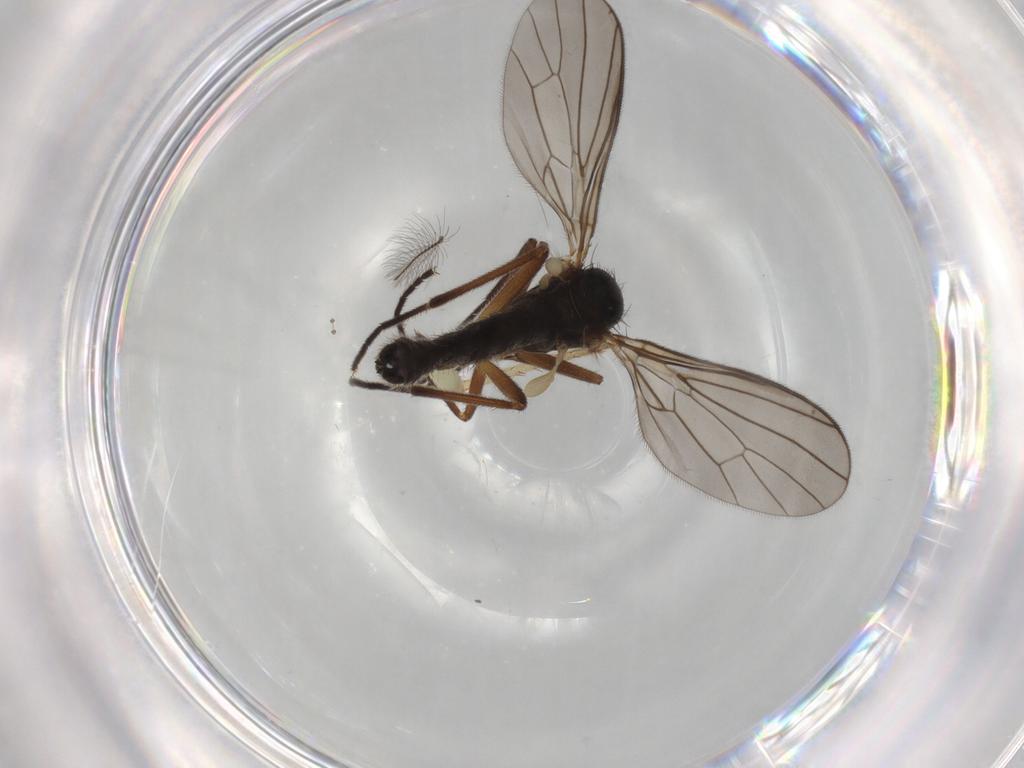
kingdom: Animalia
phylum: Arthropoda
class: Insecta
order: Diptera
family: Empididae
